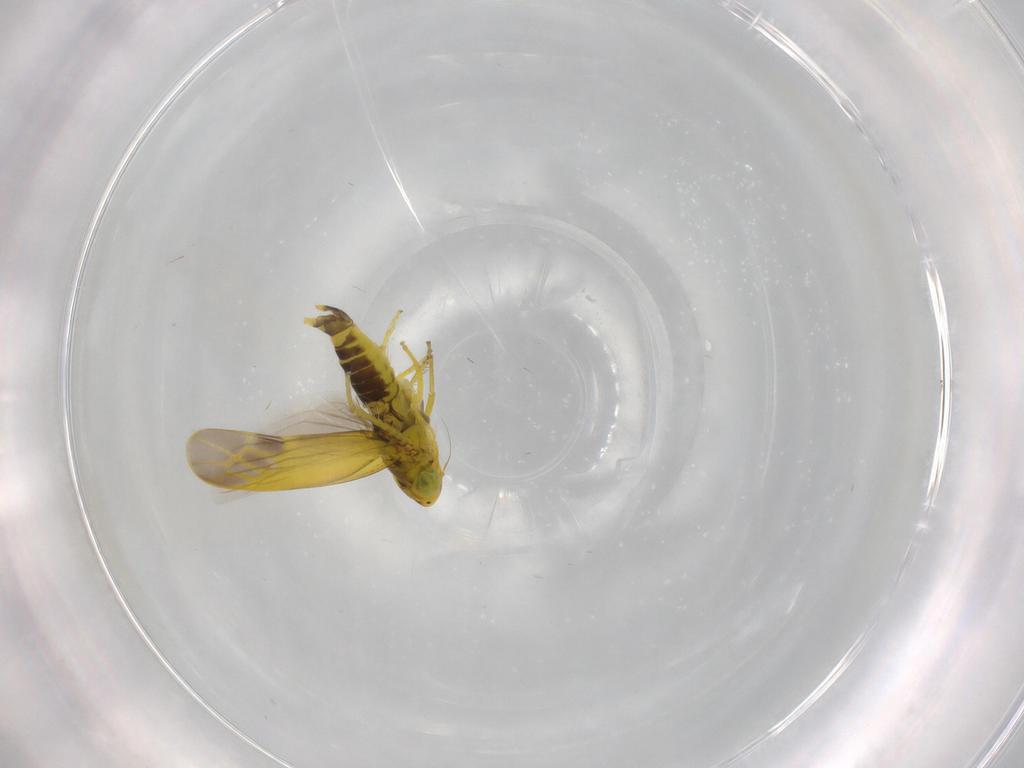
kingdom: Animalia
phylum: Arthropoda
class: Insecta
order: Hemiptera
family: Cicadellidae
